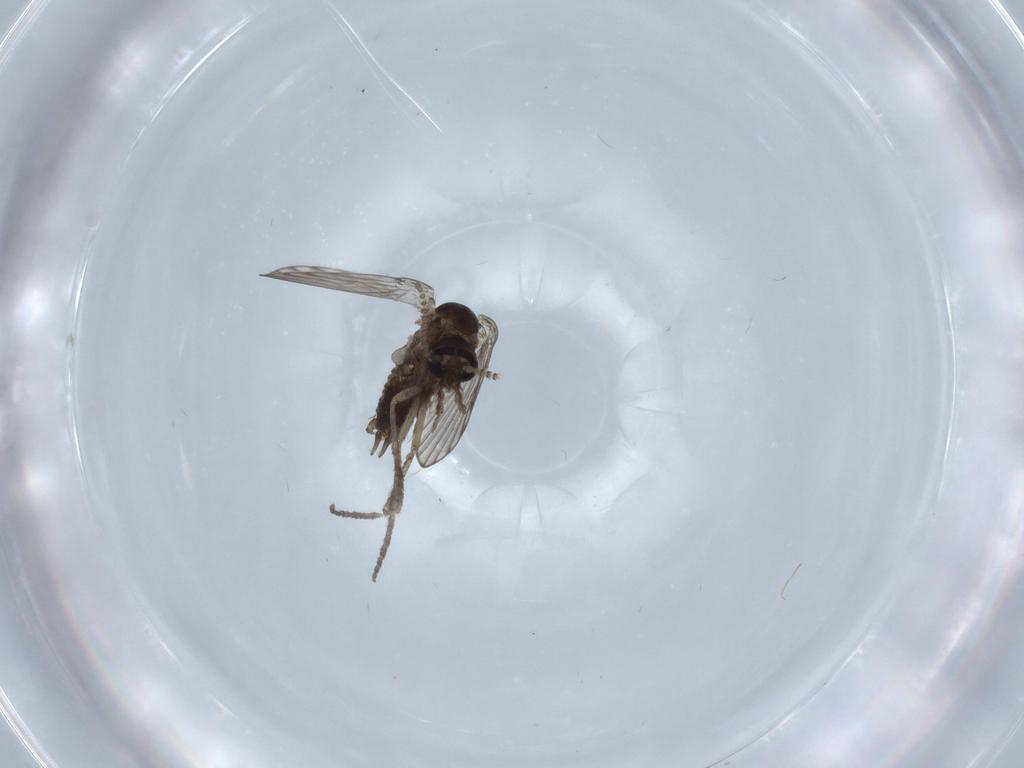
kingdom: Animalia
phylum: Arthropoda
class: Insecta
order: Diptera
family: Psychodidae
